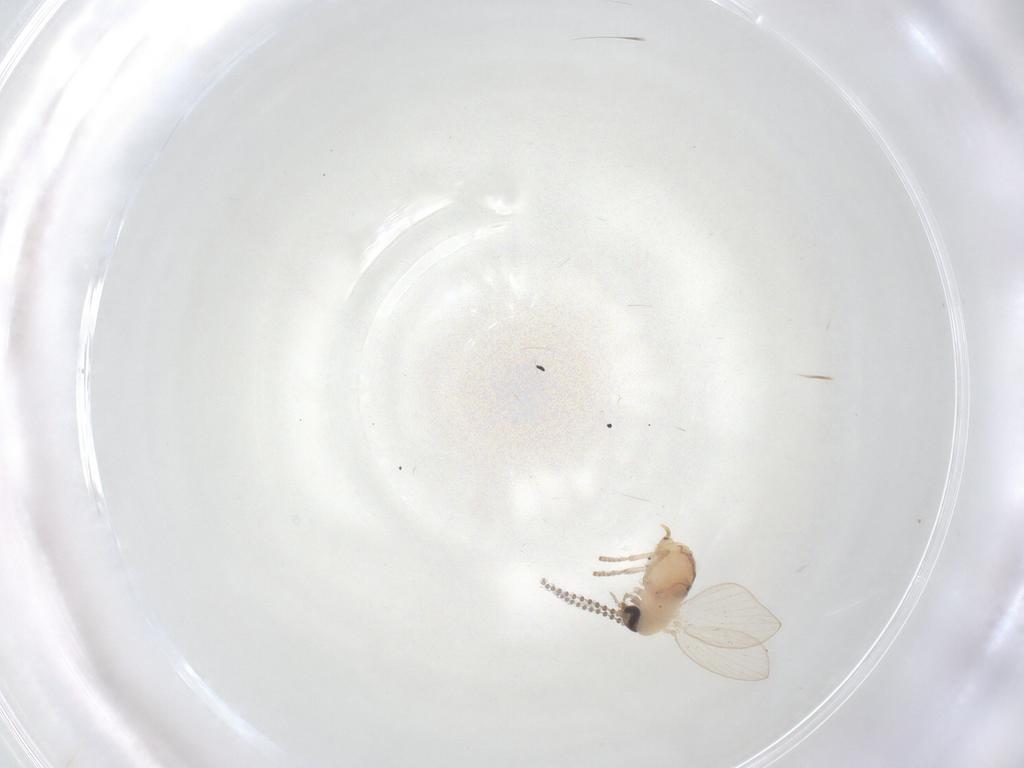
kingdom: Animalia
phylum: Arthropoda
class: Insecta
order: Diptera
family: Psychodidae
